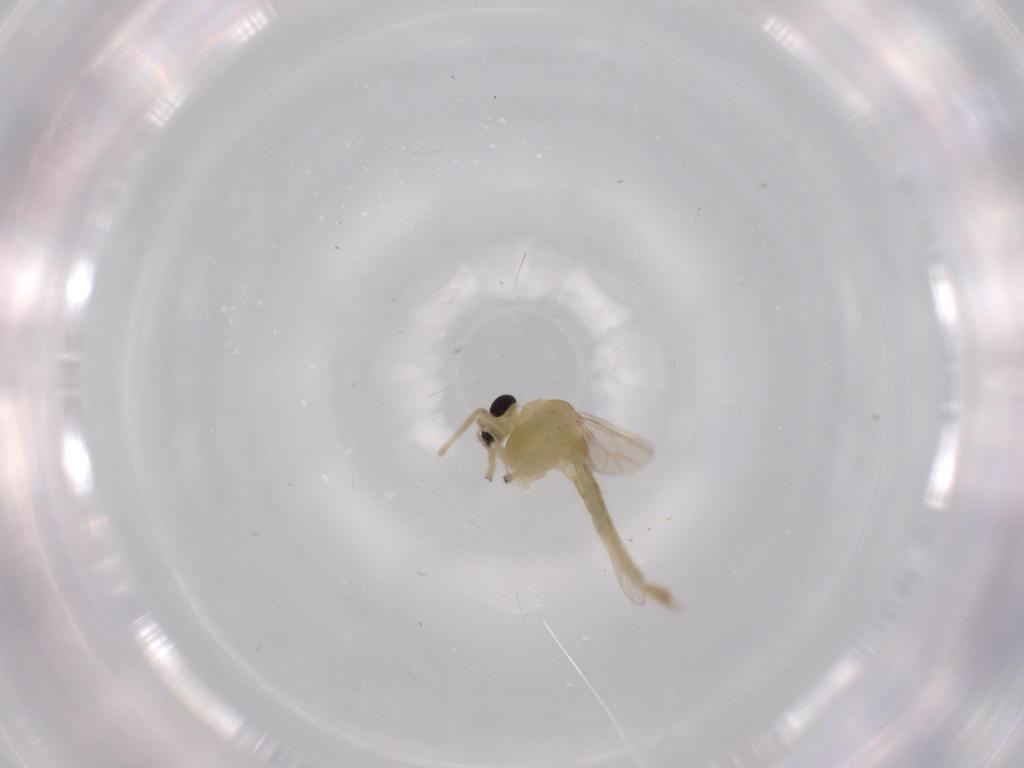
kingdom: Animalia
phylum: Arthropoda
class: Insecta
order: Diptera
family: Chironomidae
